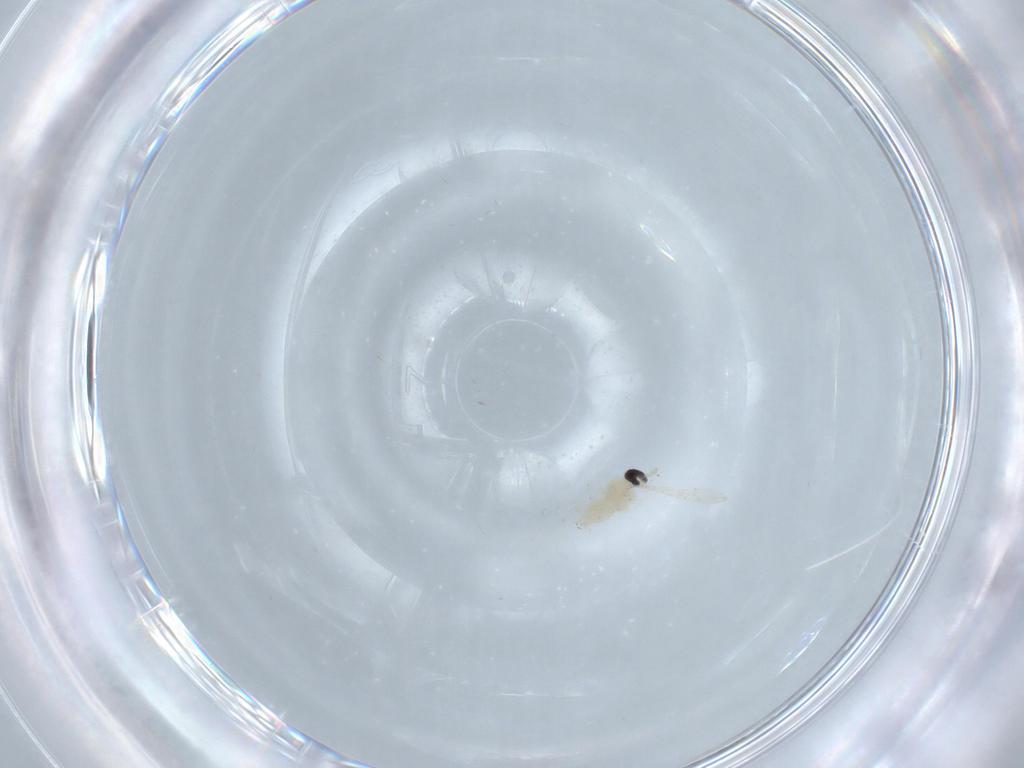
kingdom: Animalia
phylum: Arthropoda
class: Insecta
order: Diptera
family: Cecidomyiidae
